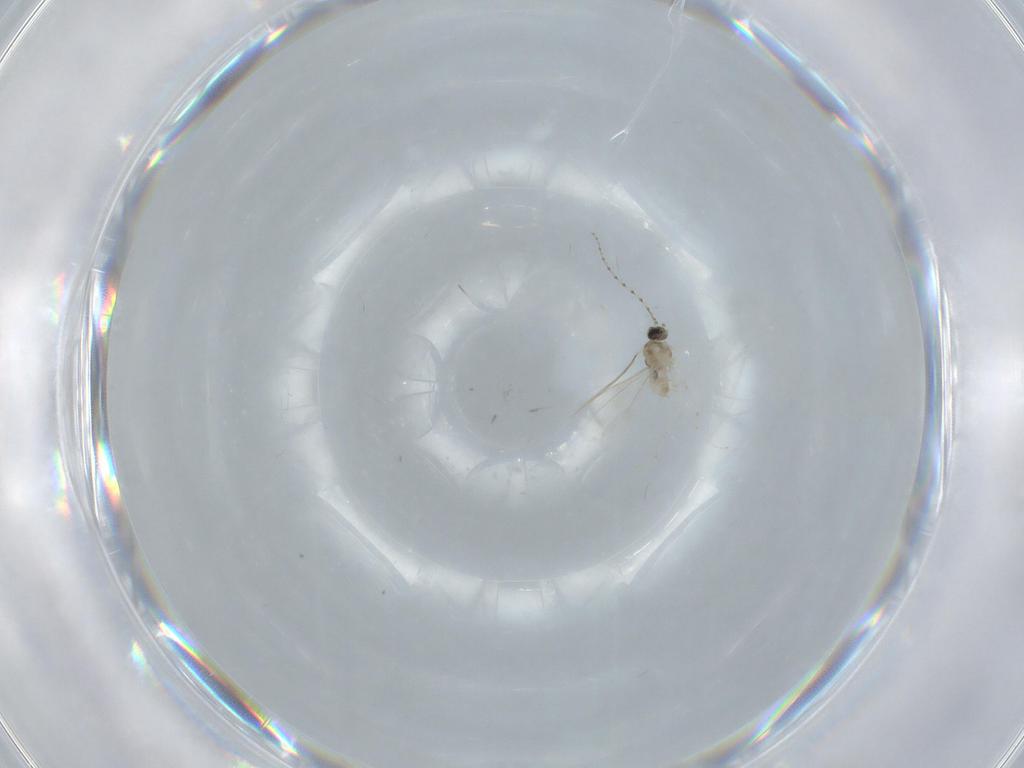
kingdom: Animalia
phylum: Arthropoda
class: Insecta
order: Diptera
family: Cecidomyiidae
